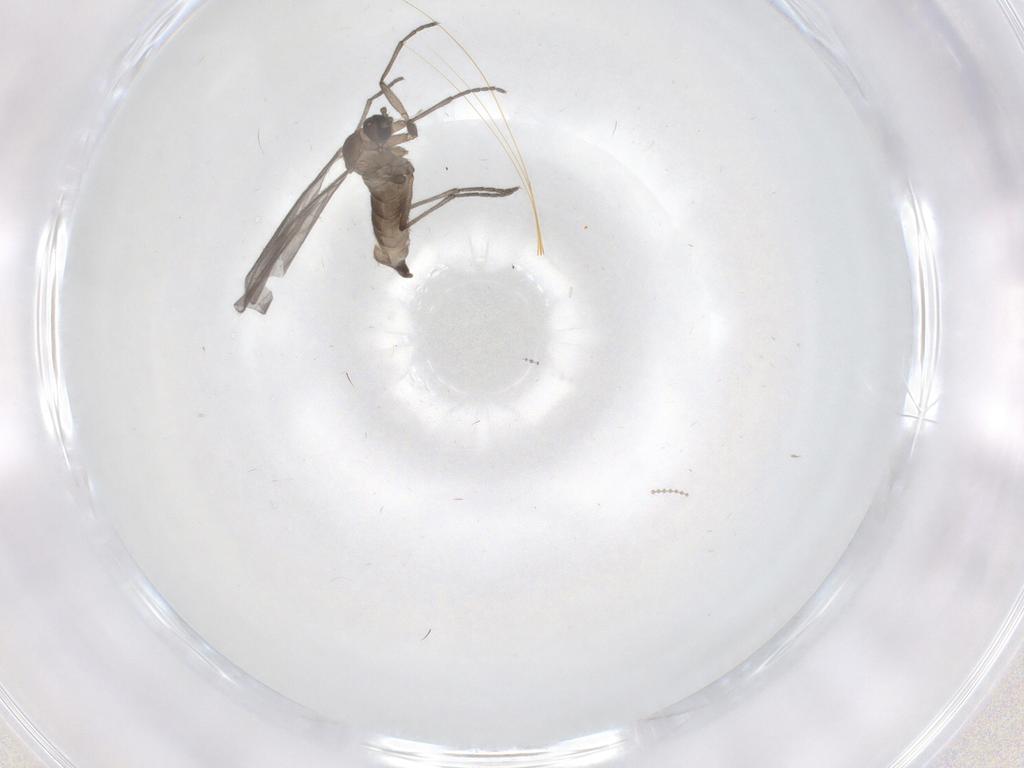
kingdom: Animalia
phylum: Arthropoda
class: Insecta
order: Diptera
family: Sciaridae
